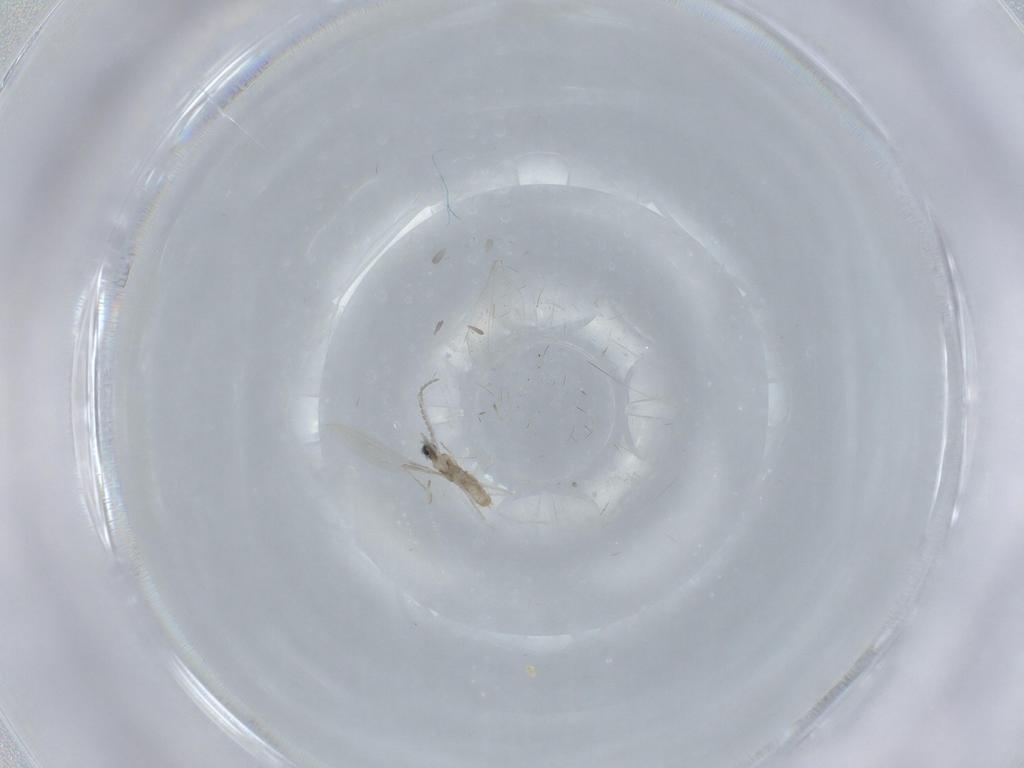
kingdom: Animalia
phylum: Arthropoda
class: Insecta
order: Diptera
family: Cecidomyiidae
